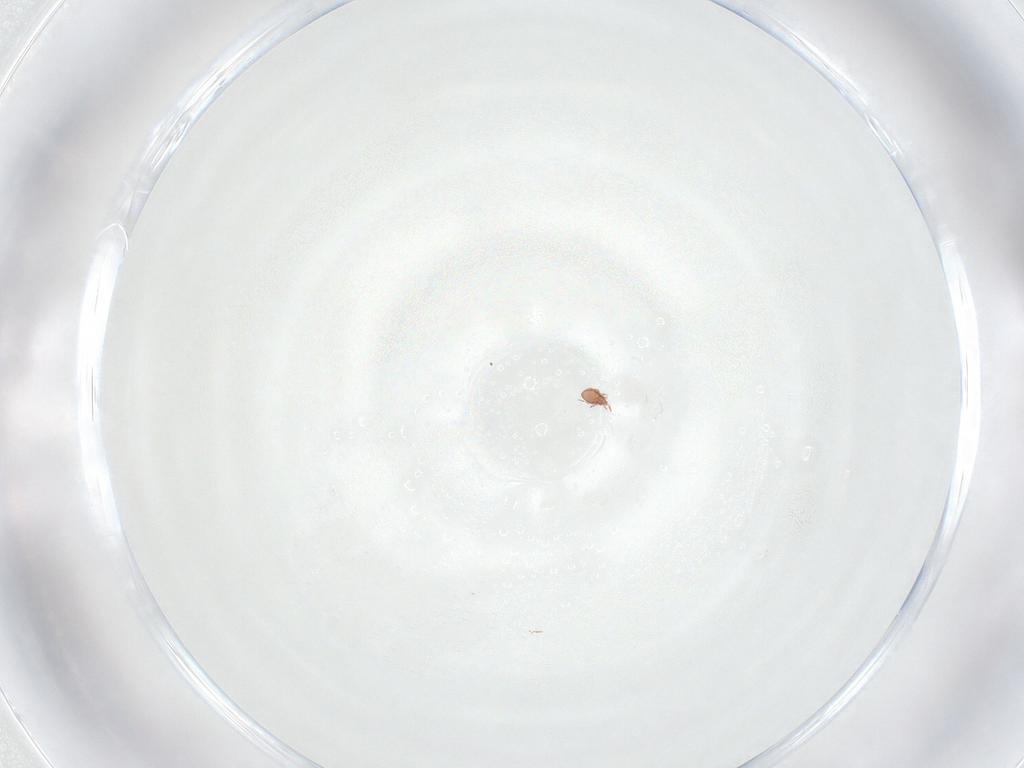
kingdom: Animalia
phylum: Arthropoda
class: Arachnida
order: Sarcoptiformes
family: Suctobelbidae
